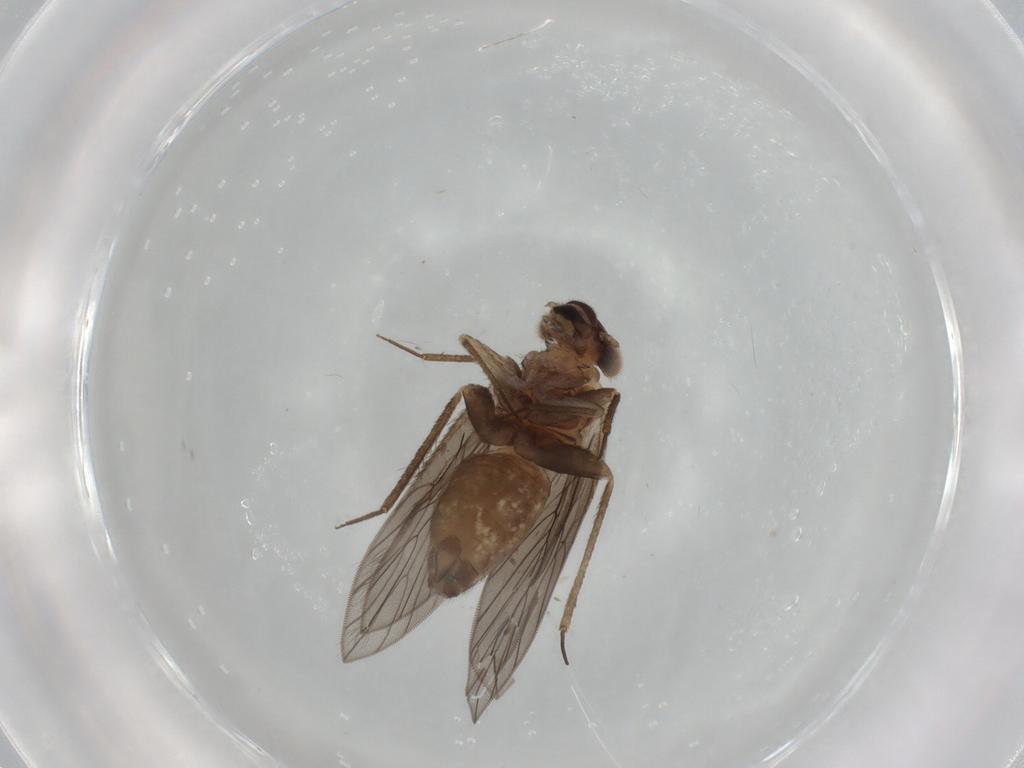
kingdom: Animalia
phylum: Arthropoda
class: Insecta
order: Psocodea
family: Lepidopsocidae
